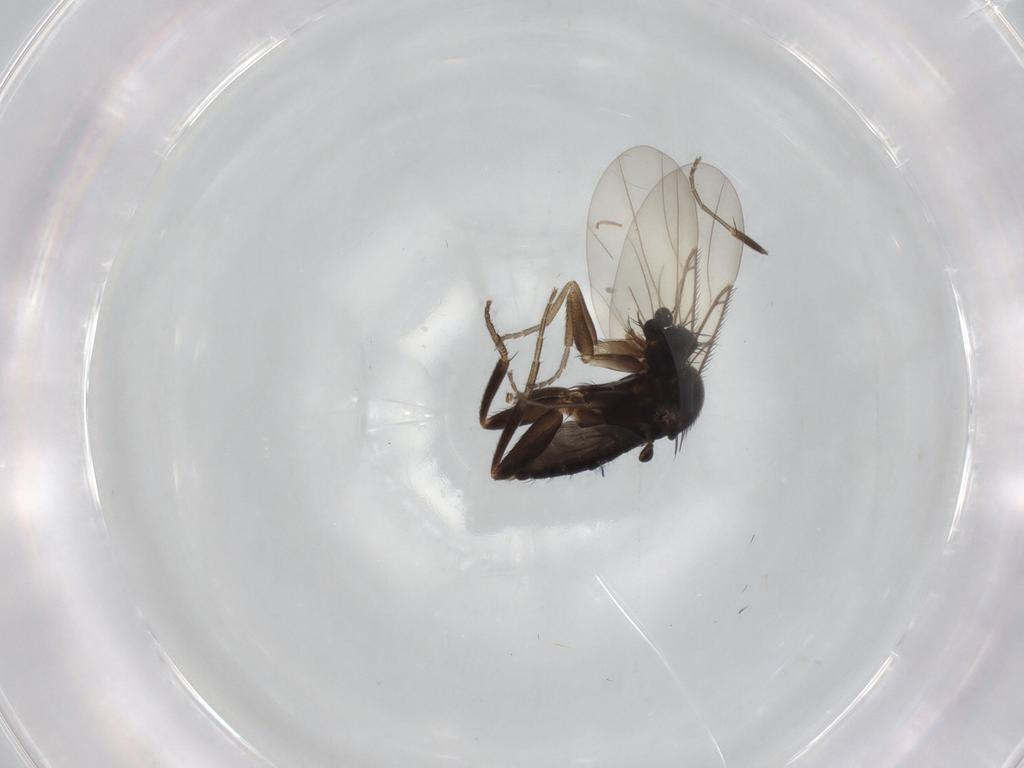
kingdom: Animalia
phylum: Arthropoda
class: Insecta
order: Diptera
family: Phoridae
